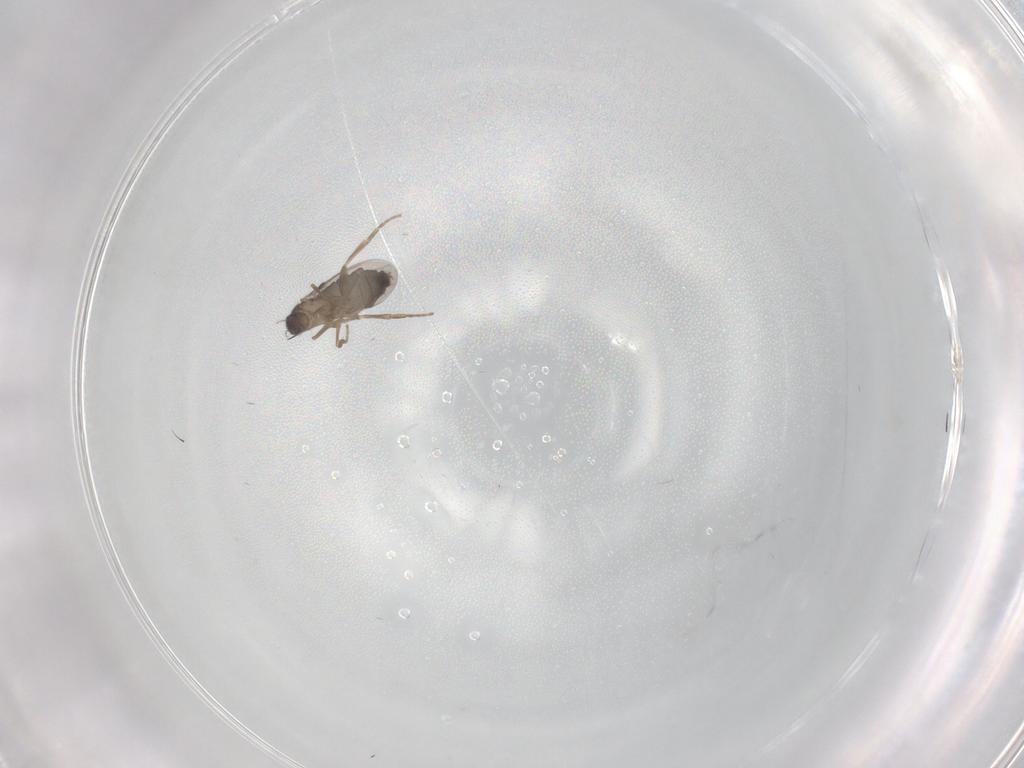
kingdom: Animalia
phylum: Arthropoda
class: Insecta
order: Diptera
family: Phoridae
